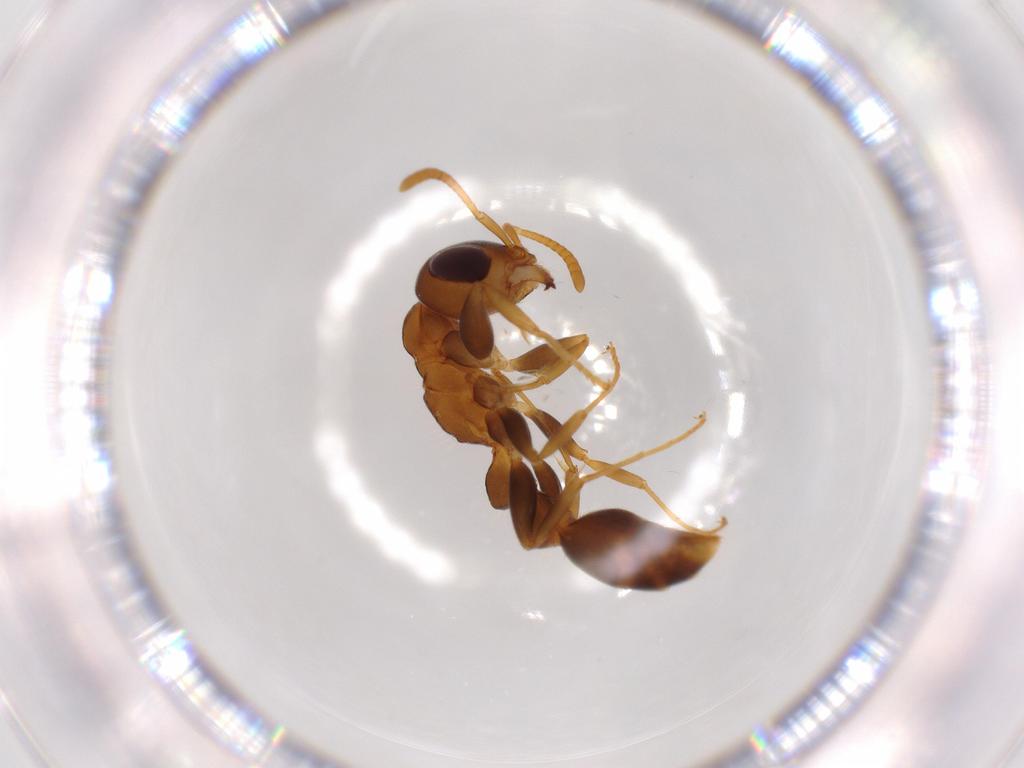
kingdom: Animalia
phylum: Arthropoda
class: Insecta
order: Hymenoptera
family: Formicidae
